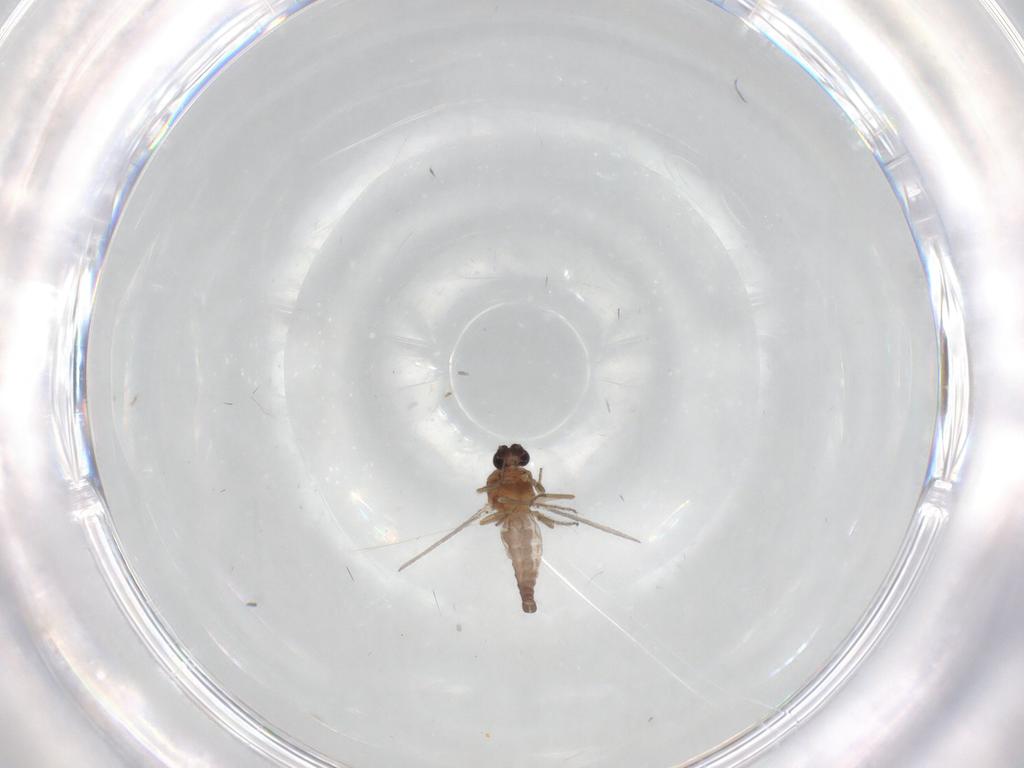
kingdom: Animalia
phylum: Arthropoda
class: Insecta
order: Diptera
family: Ceratopogonidae
